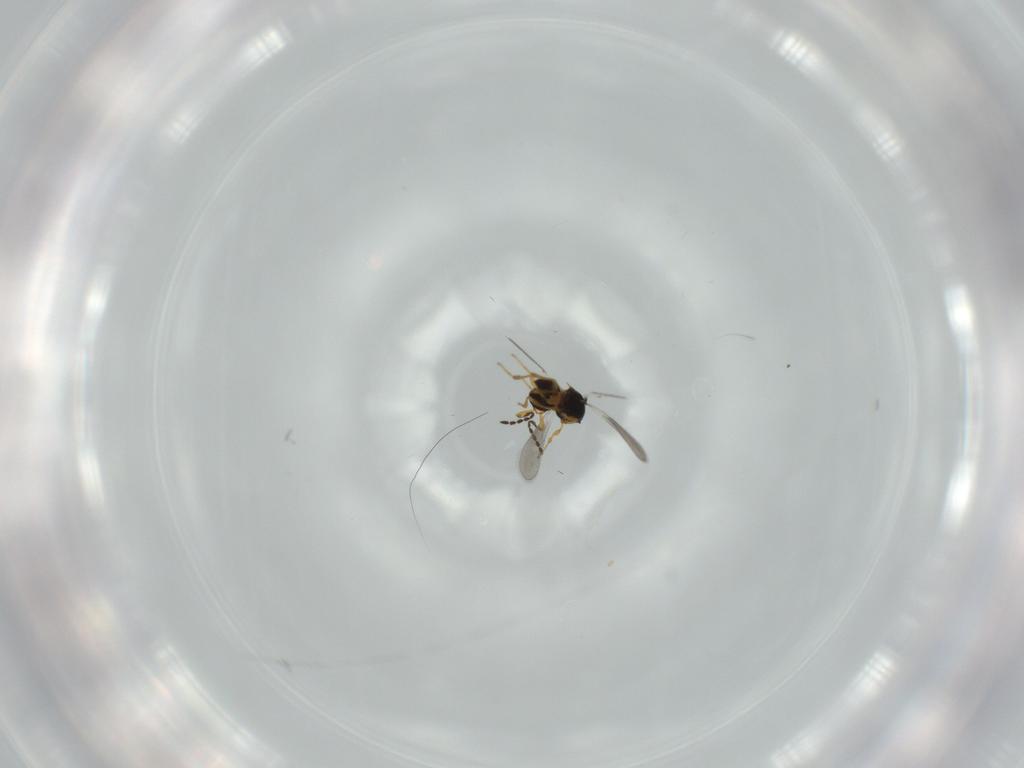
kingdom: Animalia
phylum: Arthropoda
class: Insecta
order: Hymenoptera
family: Platygastridae
